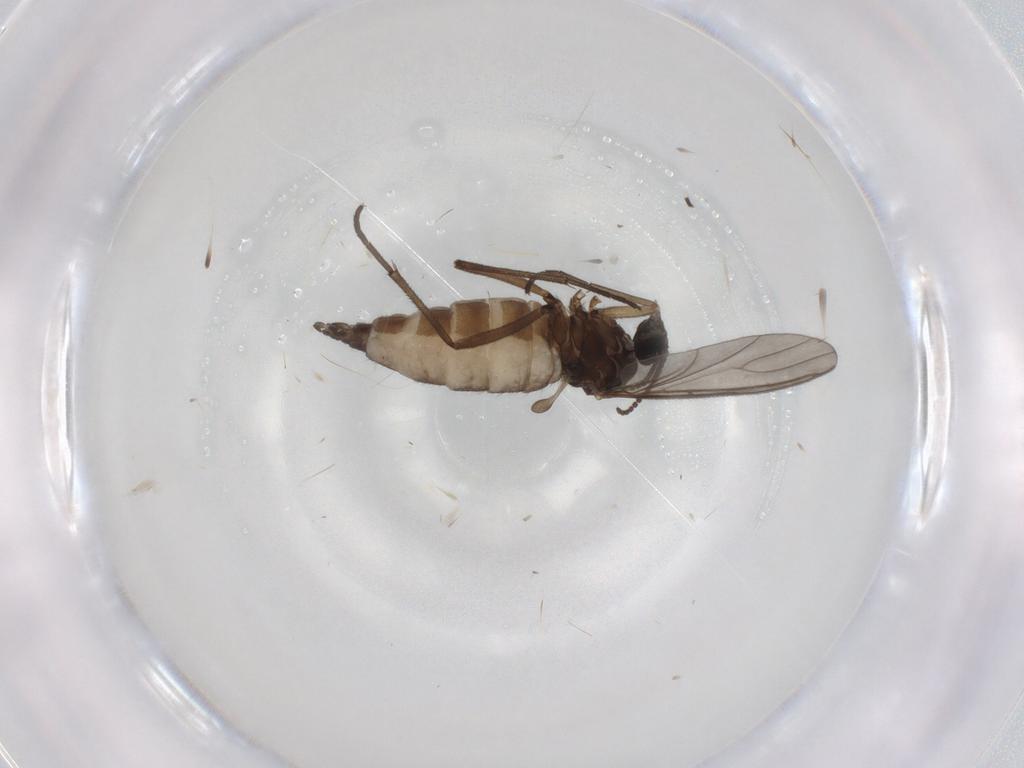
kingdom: Animalia
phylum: Arthropoda
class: Insecta
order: Diptera
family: Sciaridae
